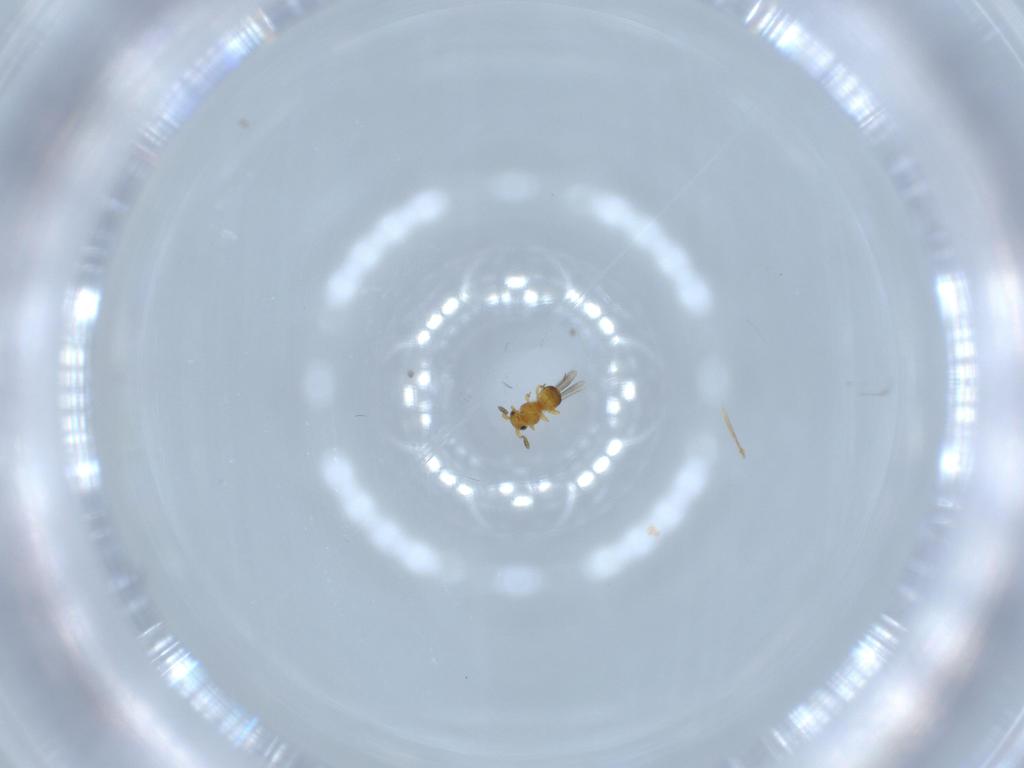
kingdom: Animalia
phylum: Arthropoda
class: Insecta
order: Hymenoptera
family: Platygastridae
